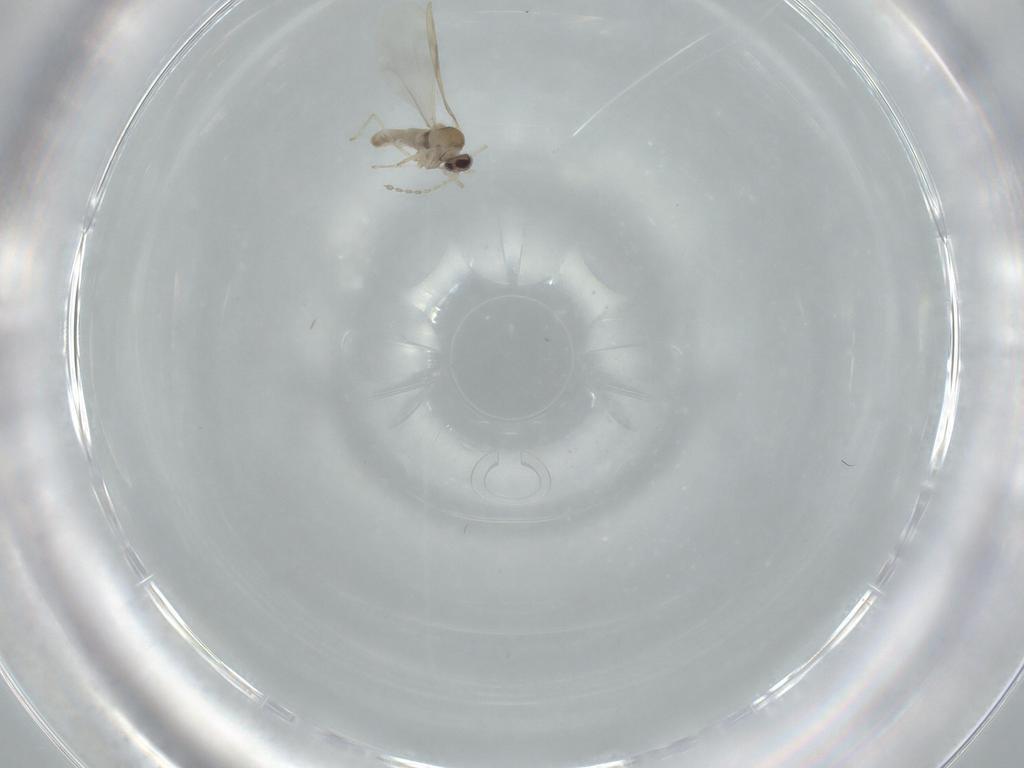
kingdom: Animalia
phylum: Arthropoda
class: Insecta
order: Diptera
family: Cecidomyiidae
